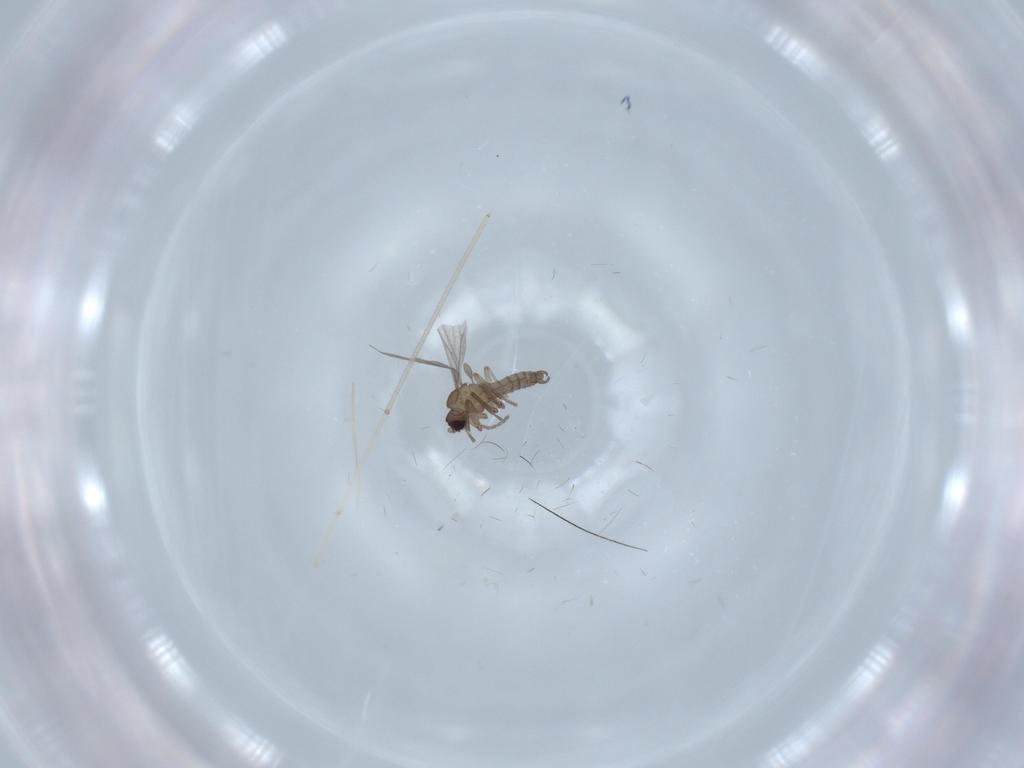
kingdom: Animalia
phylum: Arthropoda
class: Insecta
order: Diptera
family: Cecidomyiidae
